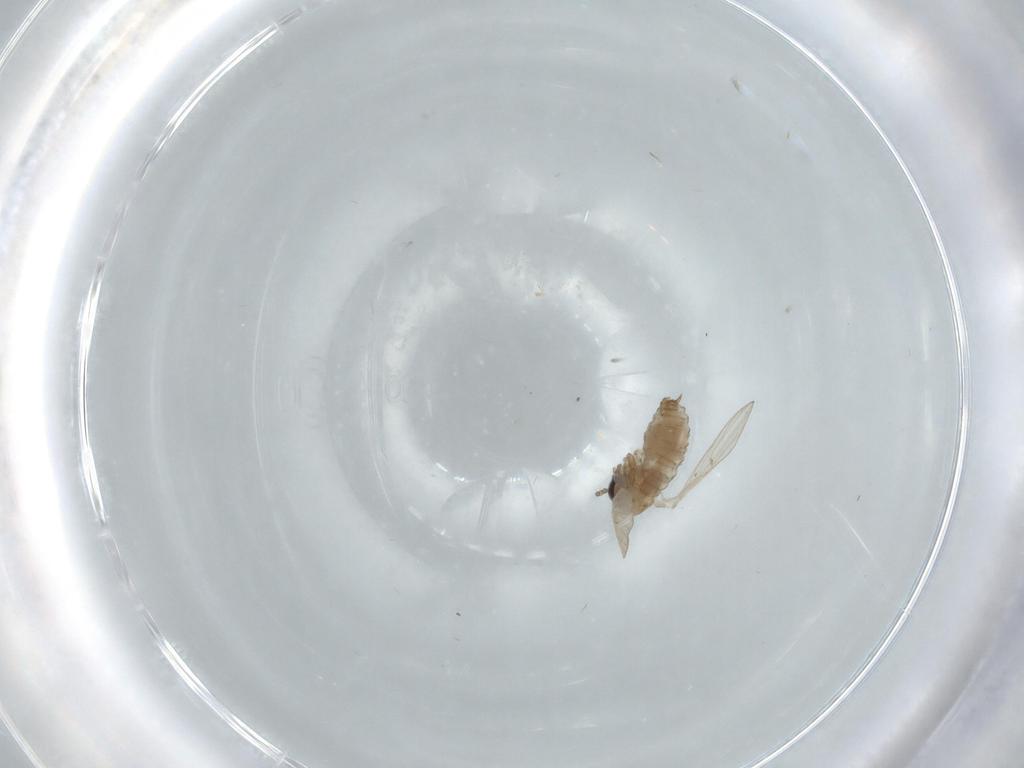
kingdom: Animalia
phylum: Arthropoda
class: Insecta
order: Diptera
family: Psychodidae
